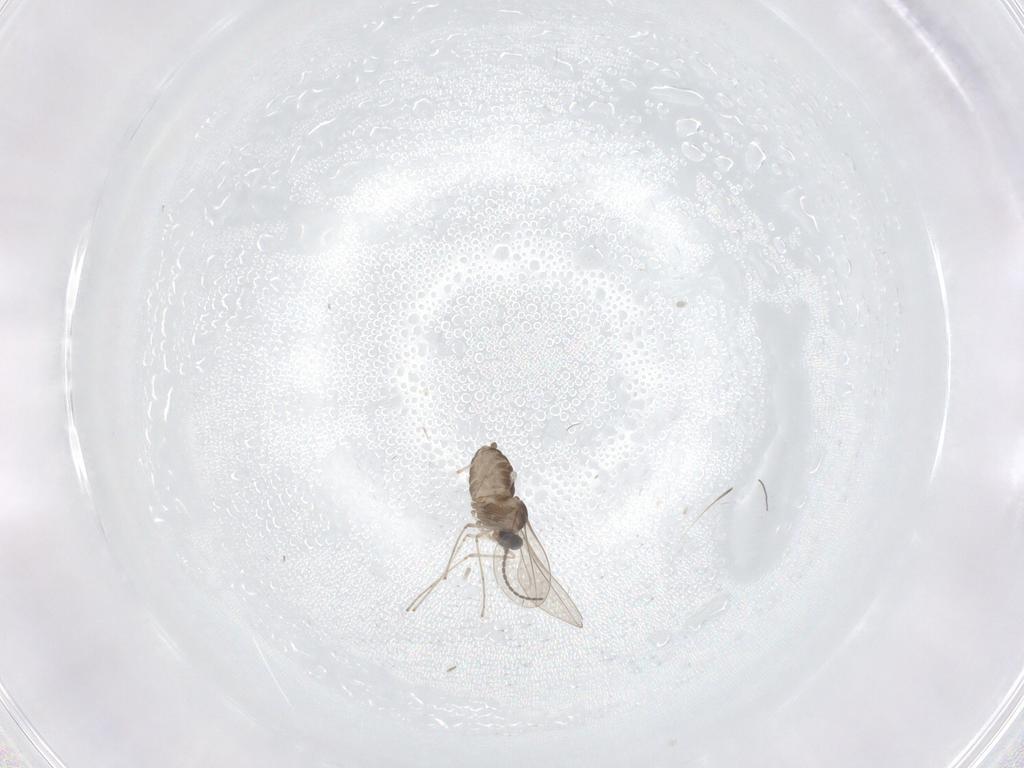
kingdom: Animalia
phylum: Arthropoda
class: Insecta
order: Diptera
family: Cecidomyiidae
